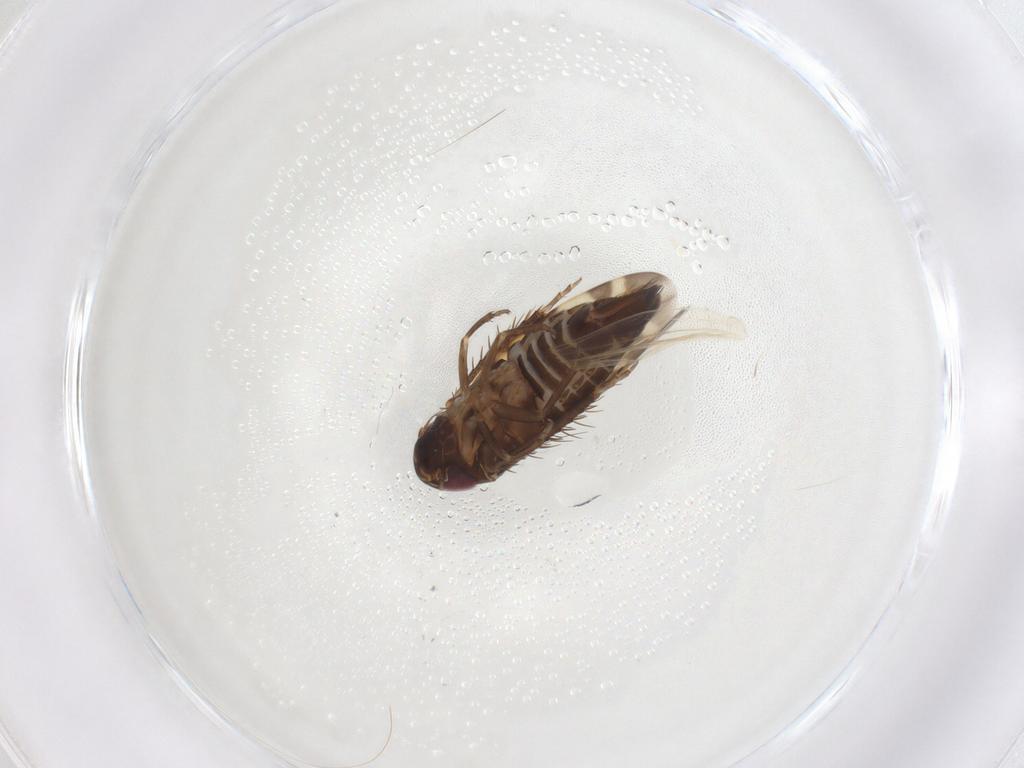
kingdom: Animalia
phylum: Arthropoda
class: Insecta
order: Hemiptera
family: Cicadellidae
